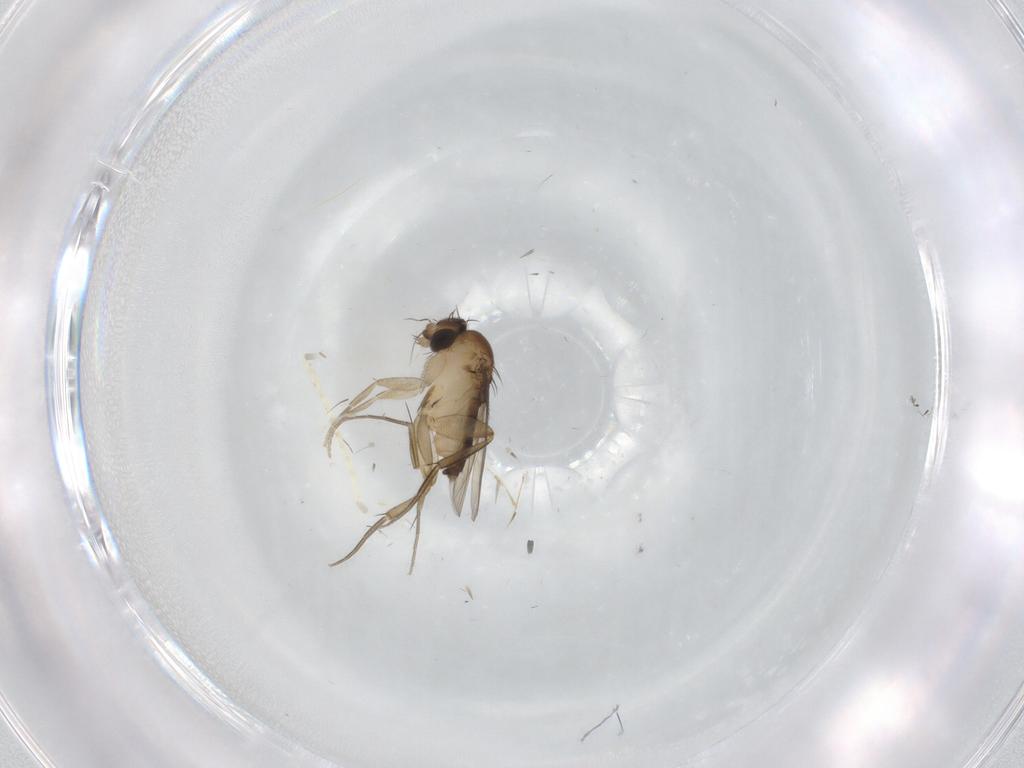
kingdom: Animalia
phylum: Arthropoda
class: Insecta
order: Diptera
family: Phoridae
